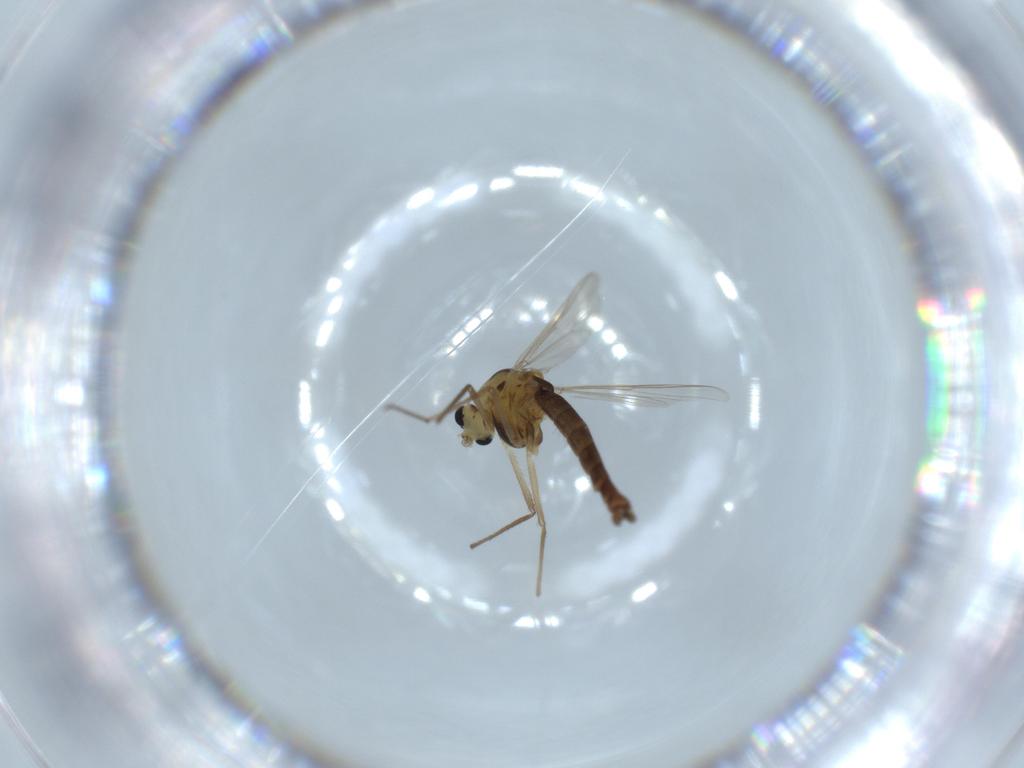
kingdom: Animalia
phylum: Arthropoda
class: Insecta
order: Diptera
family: Chironomidae
